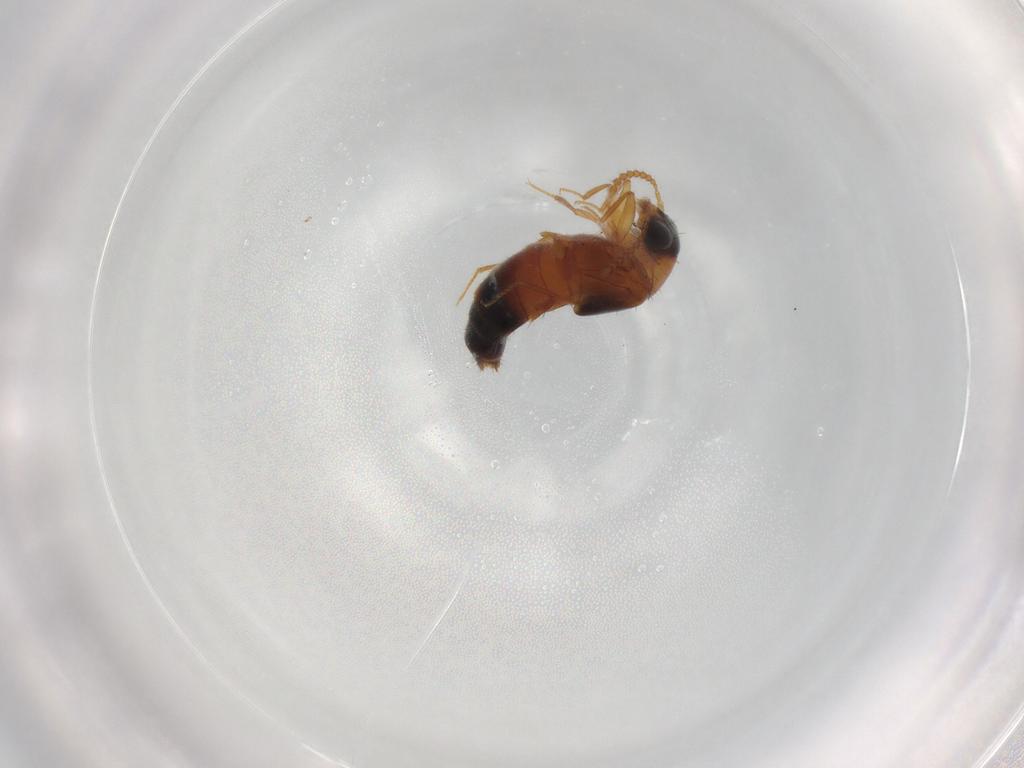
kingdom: Animalia
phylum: Arthropoda
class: Insecta
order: Coleoptera
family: Staphylinidae
